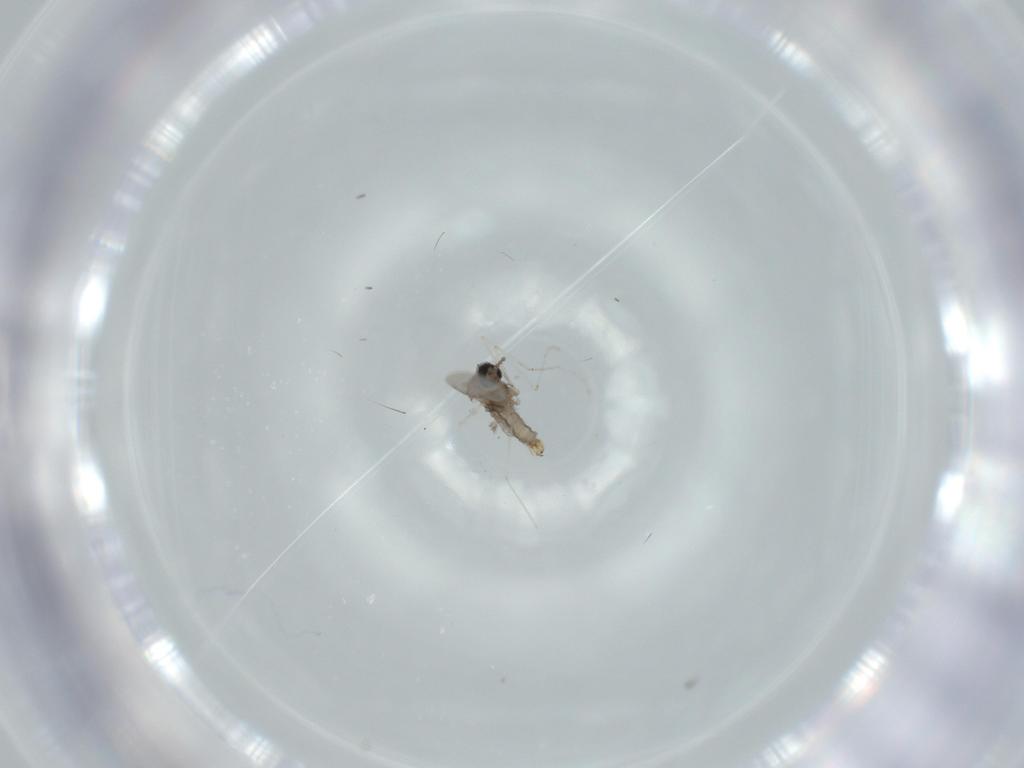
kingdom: Animalia
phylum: Arthropoda
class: Insecta
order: Diptera
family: Cecidomyiidae
